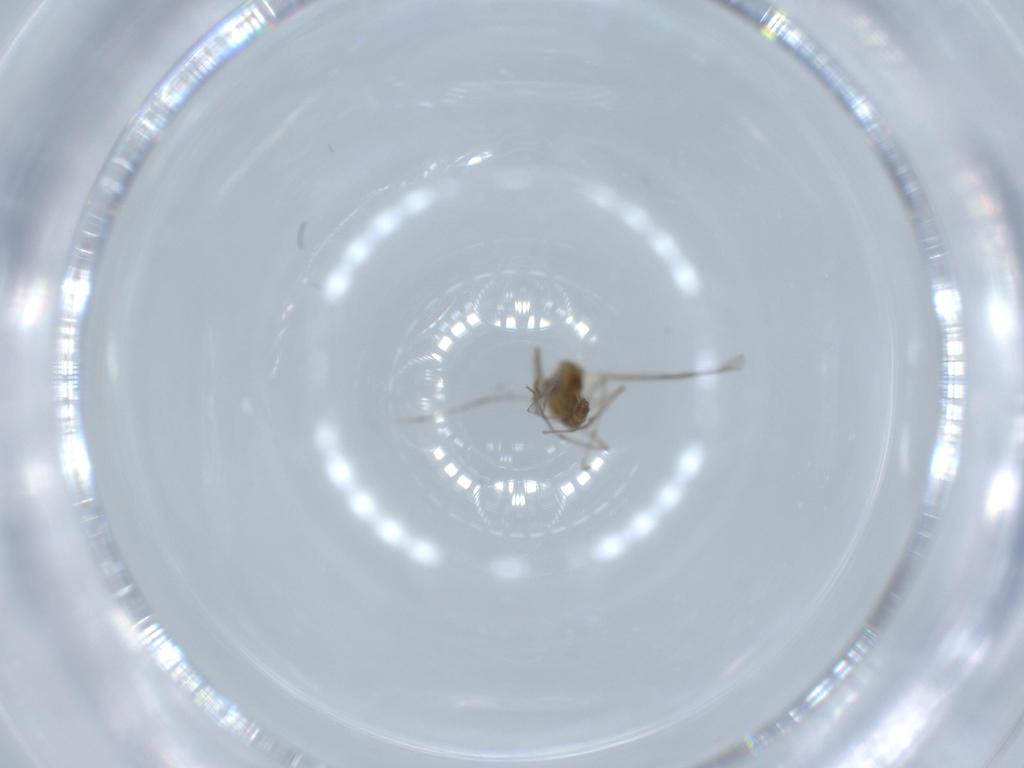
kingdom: Animalia
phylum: Arthropoda
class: Insecta
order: Diptera
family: Chironomidae
